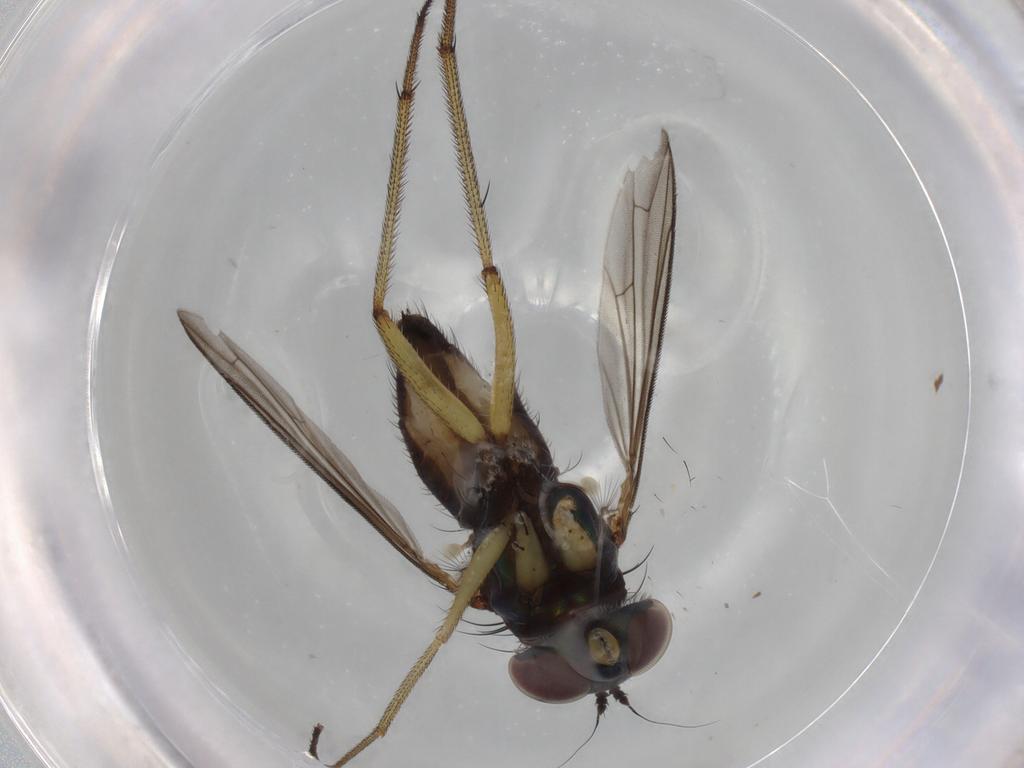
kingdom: Animalia
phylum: Arthropoda
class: Insecta
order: Diptera
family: Dolichopodidae
